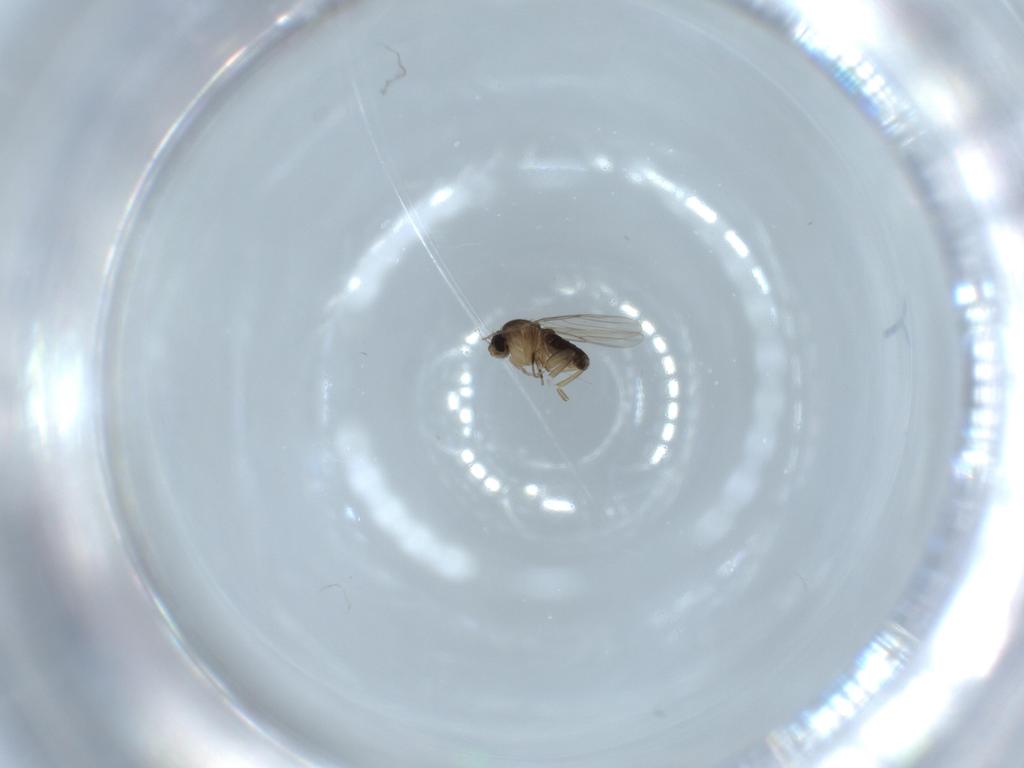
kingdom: Animalia
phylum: Arthropoda
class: Insecta
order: Diptera
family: Phoridae
